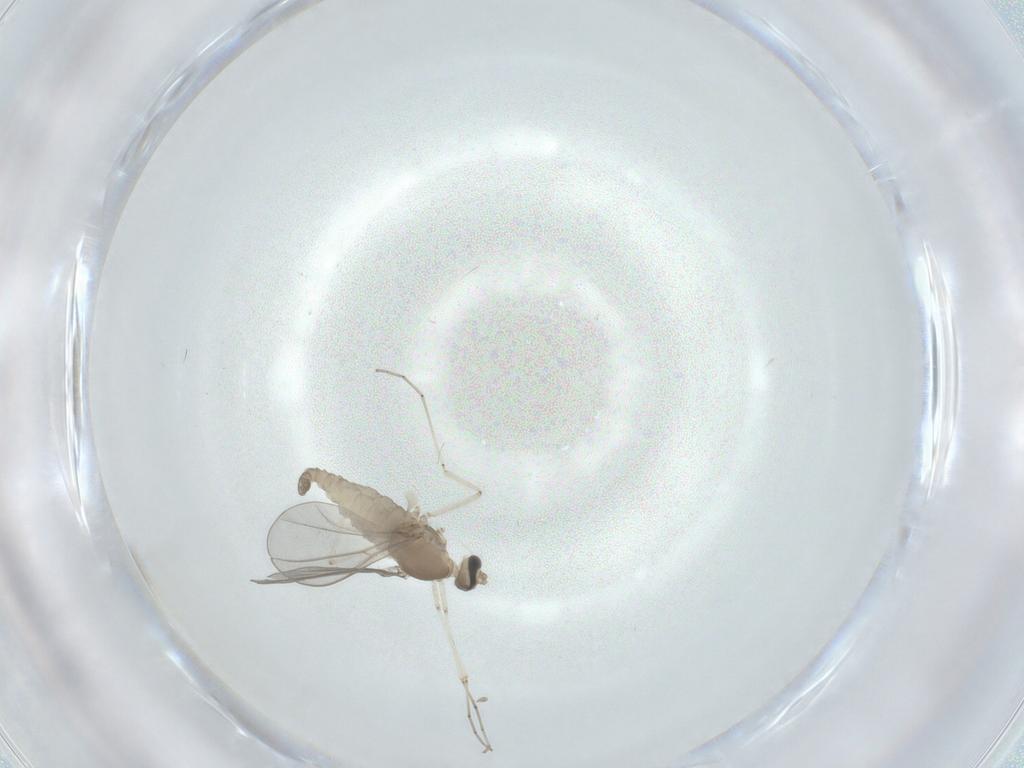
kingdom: Animalia
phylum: Arthropoda
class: Insecta
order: Diptera
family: Cecidomyiidae
